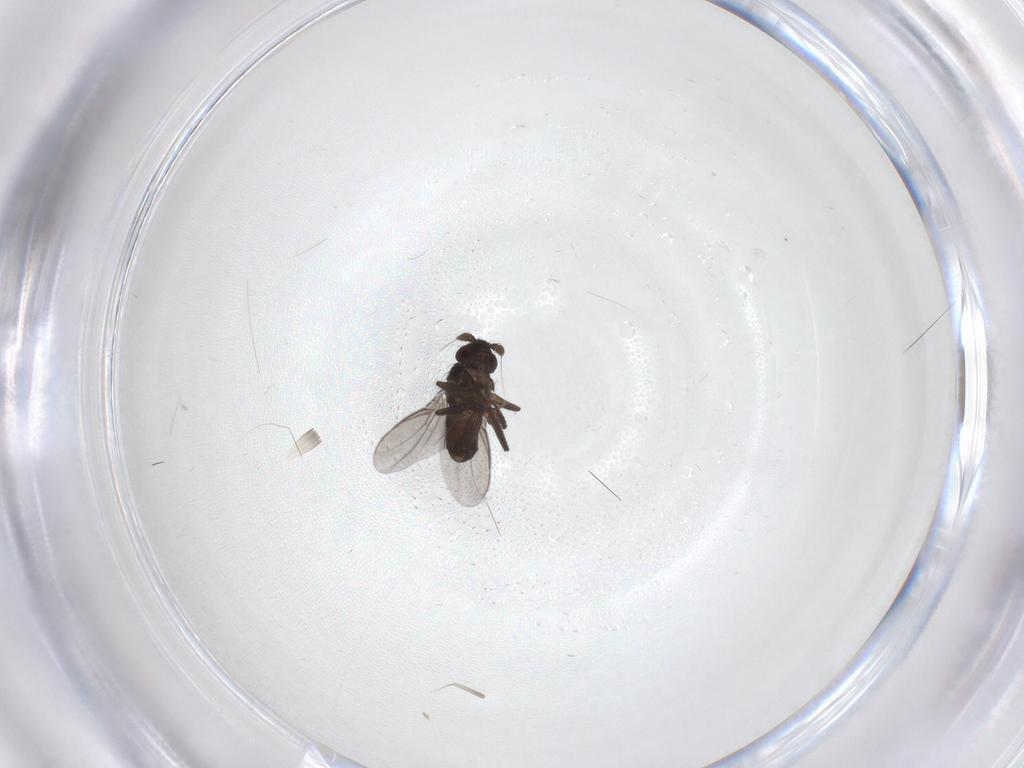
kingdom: Animalia
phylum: Arthropoda
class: Insecta
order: Diptera
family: Sphaeroceridae
